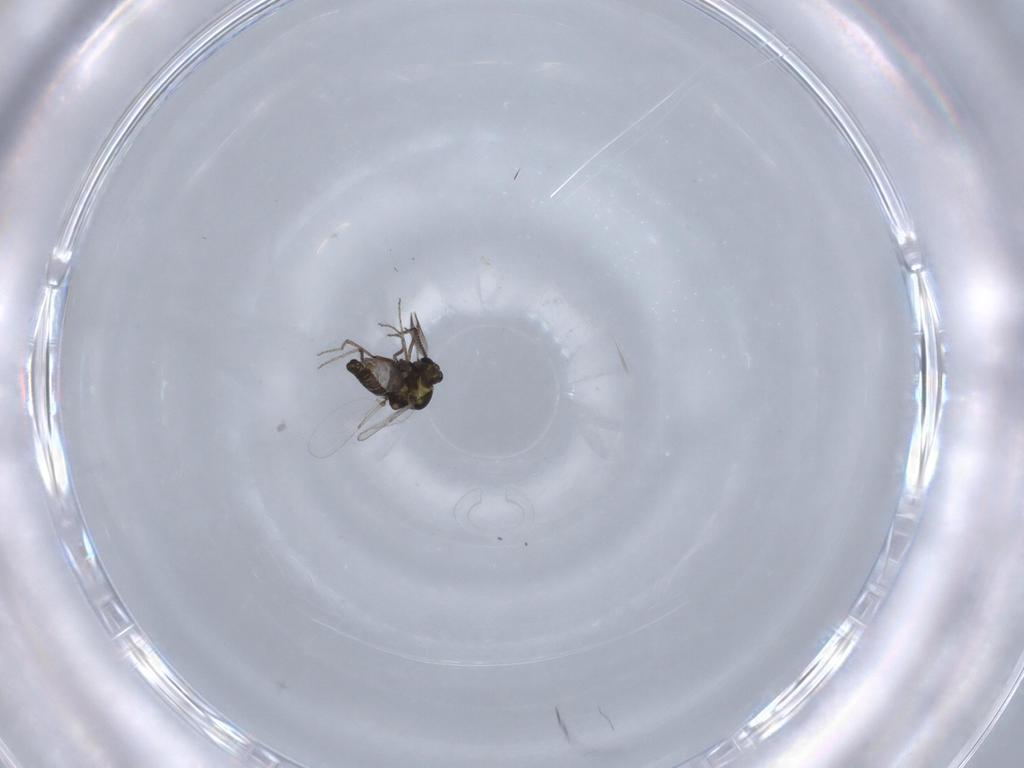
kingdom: Animalia
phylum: Arthropoda
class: Insecta
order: Diptera
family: Ceratopogonidae
